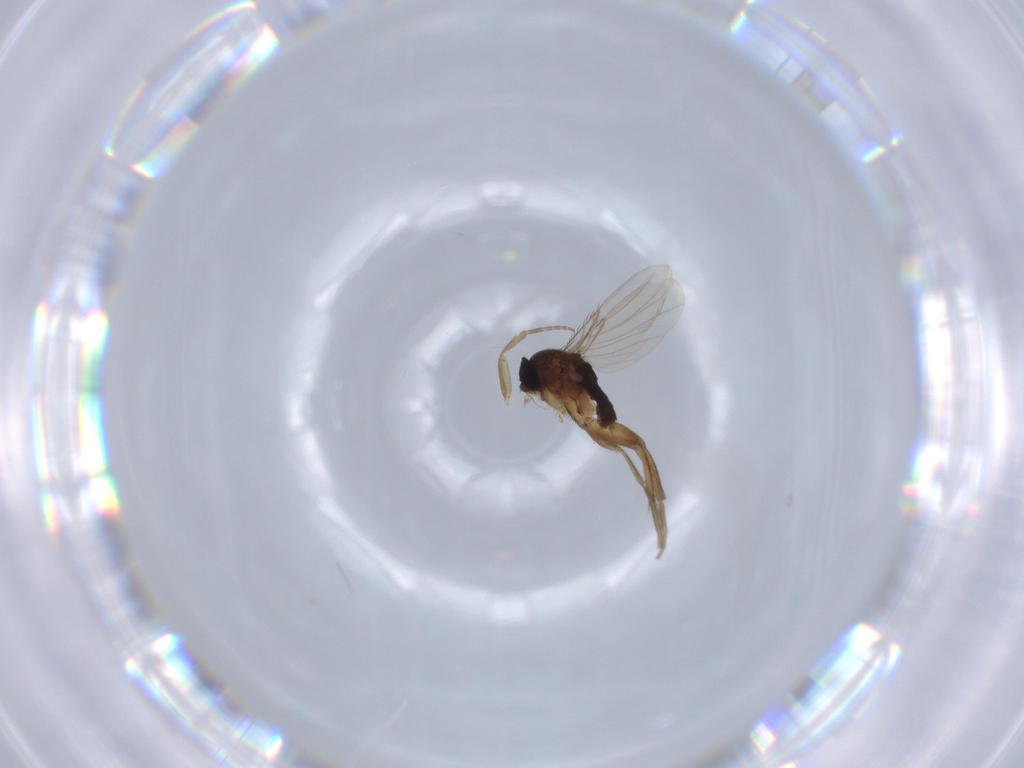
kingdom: Animalia
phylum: Arthropoda
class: Insecta
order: Diptera
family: Phoridae
